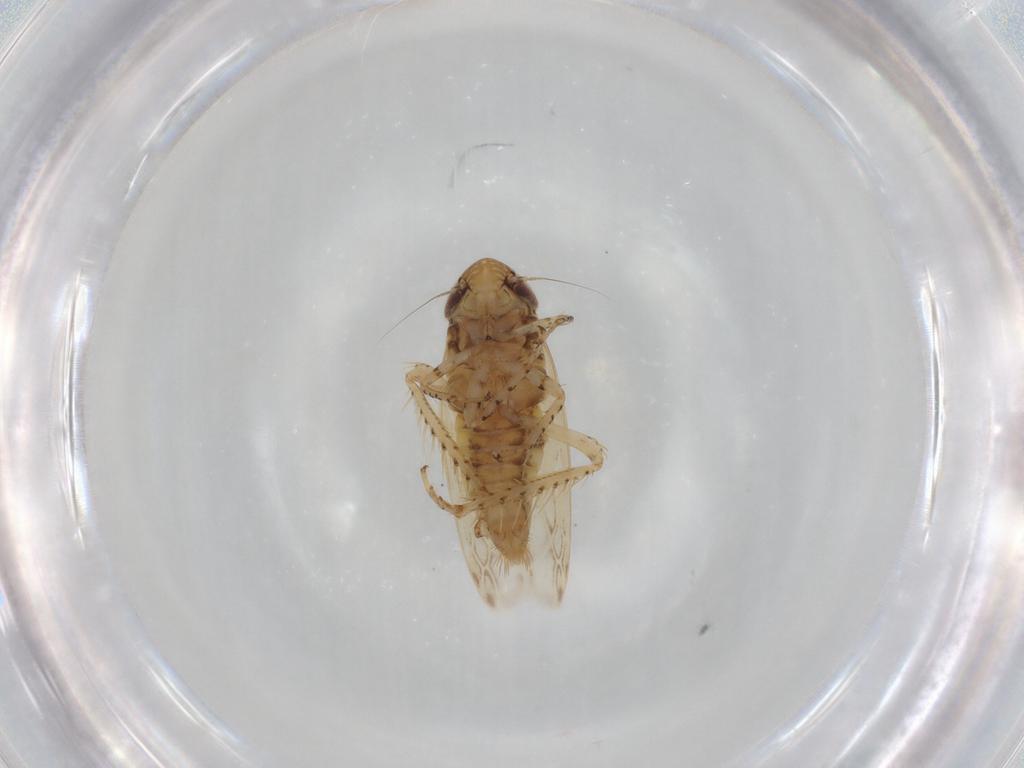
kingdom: Animalia
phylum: Arthropoda
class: Insecta
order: Hemiptera
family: Cicadellidae
